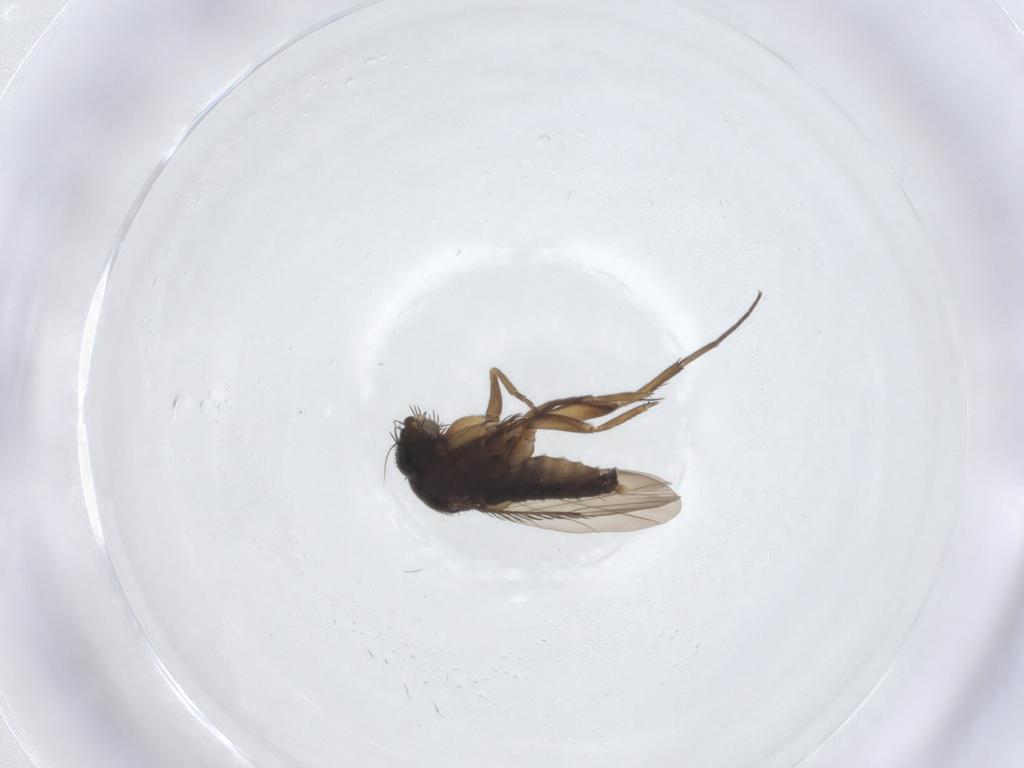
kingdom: Animalia
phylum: Arthropoda
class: Insecta
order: Diptera
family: Phoridae
